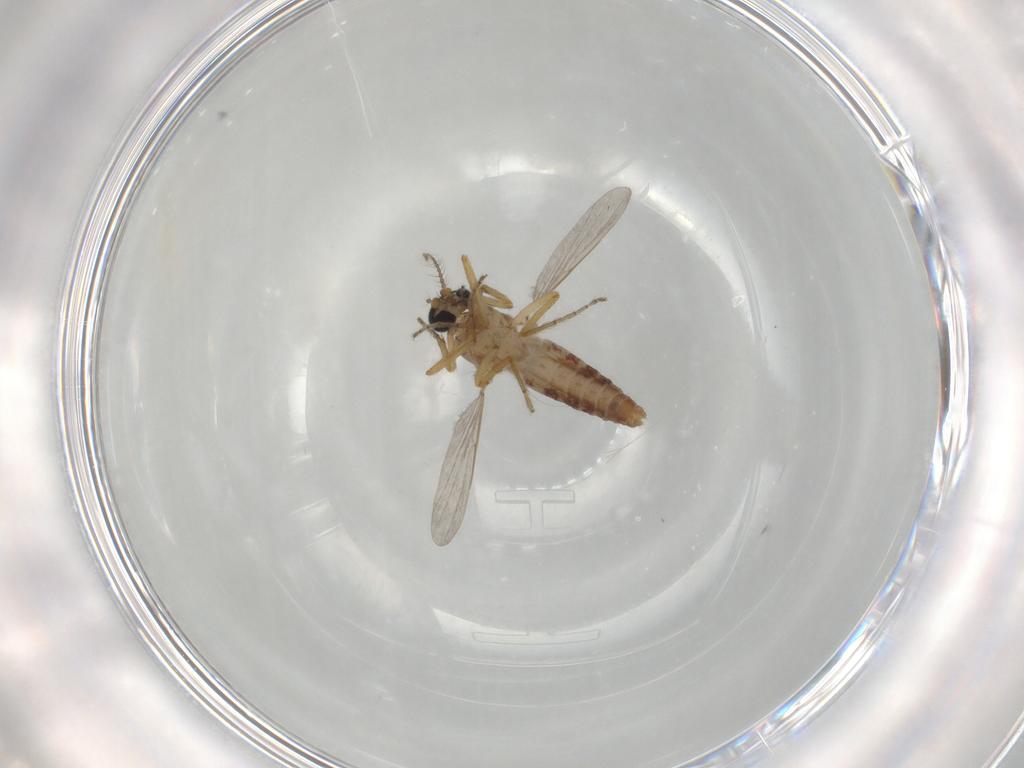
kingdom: Animalia
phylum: Arthropoda
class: Insecta
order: Diptera
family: Ceratopogonidae
